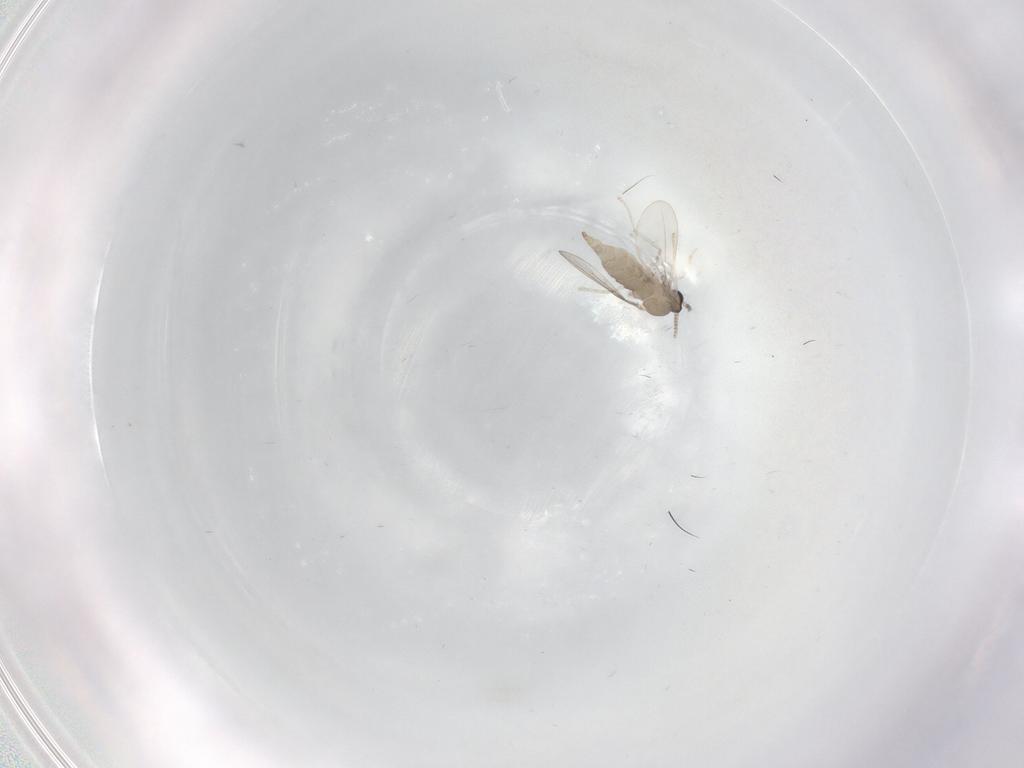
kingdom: Animalia
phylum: Arthropoda
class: Insecta
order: Diptera
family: Cecidomyiidae
